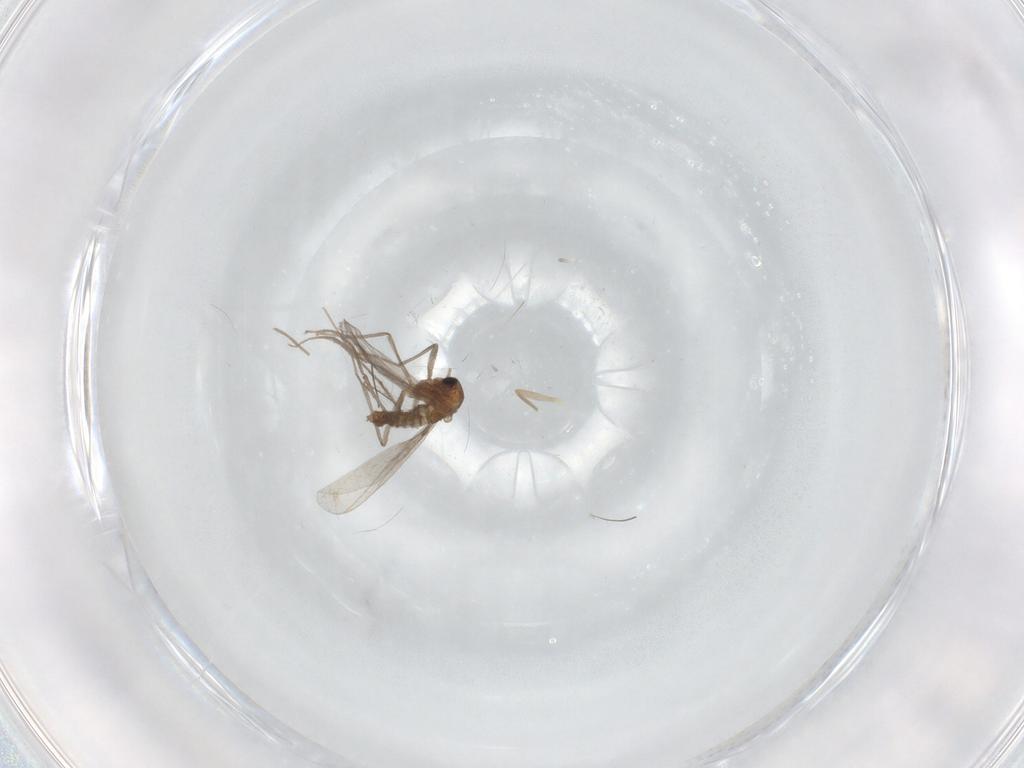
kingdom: Animalia
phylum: Arthropoda
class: Insecta
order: Diptera
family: Chironomidae
